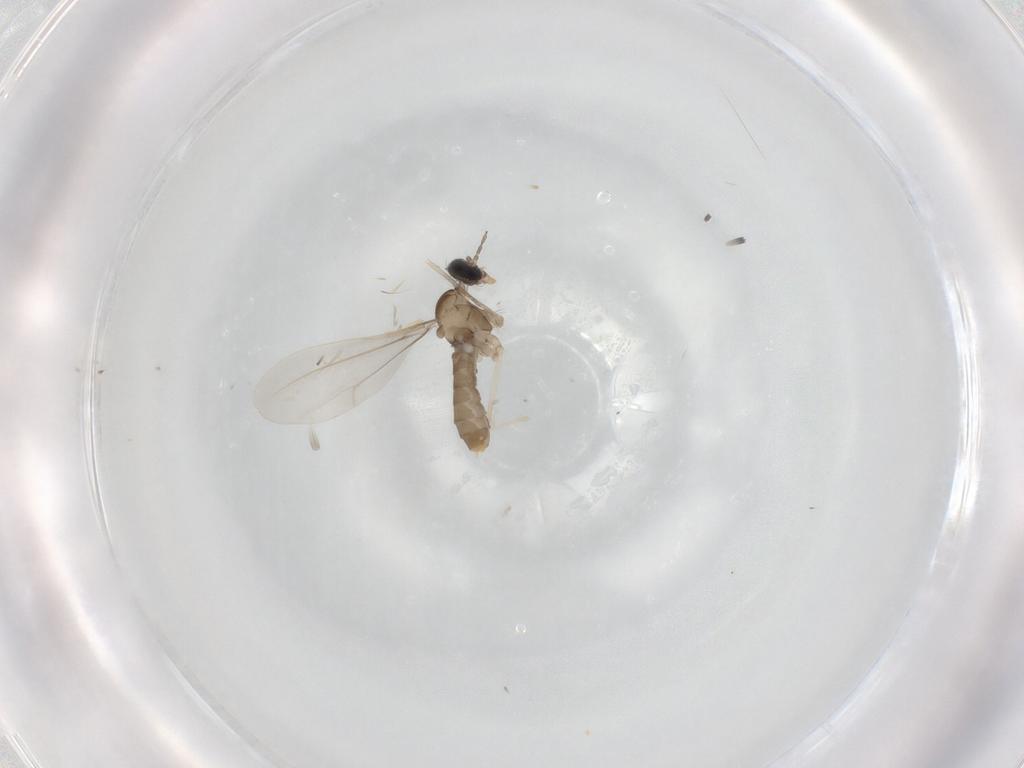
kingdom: Animalia
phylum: Arthropoda
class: Insecta
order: Diptera
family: Cecidomyiidae
